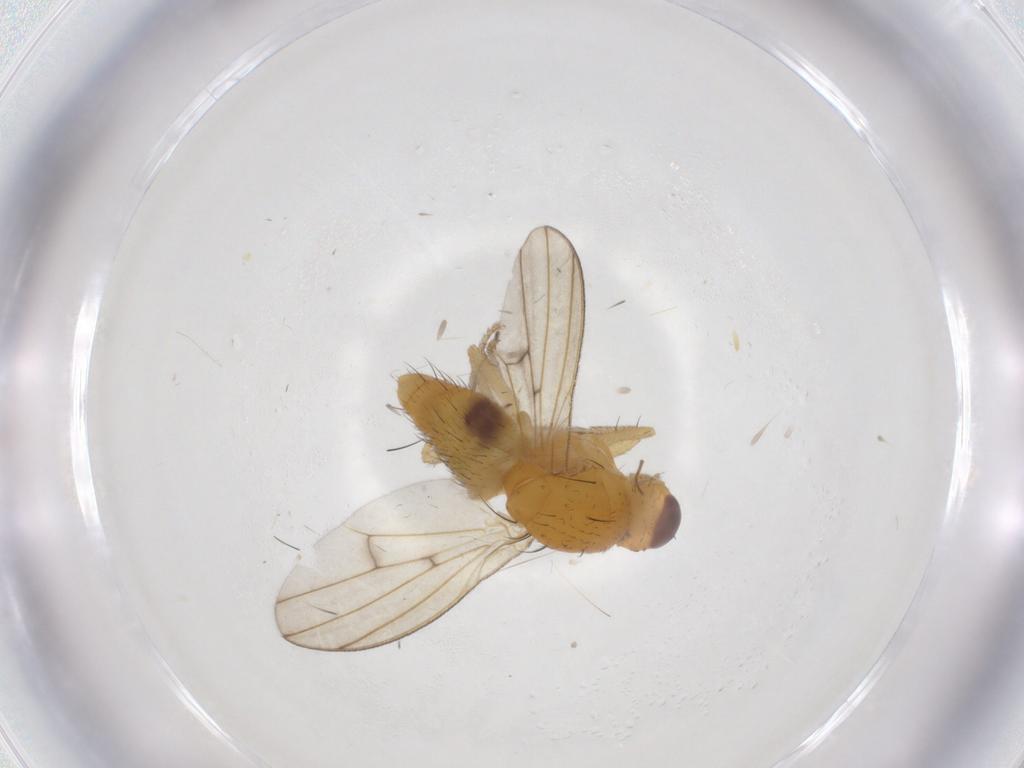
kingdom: Animalia
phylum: Arthropoda
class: Insecta
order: Diptera
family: Cecidomyiidae
